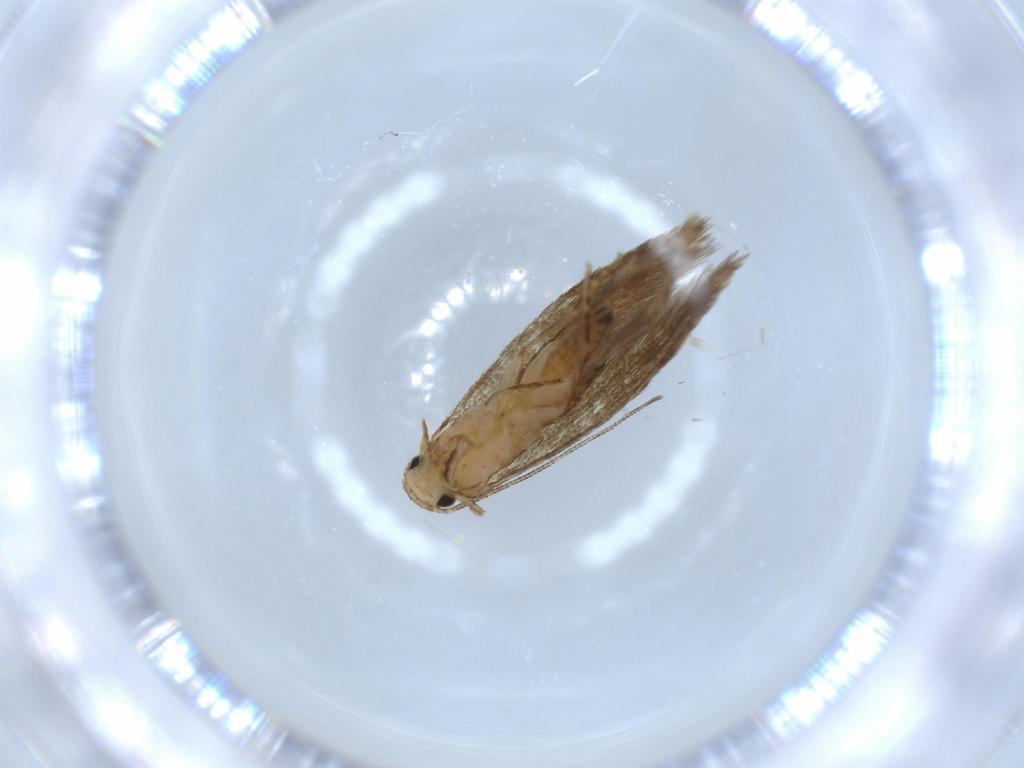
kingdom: Animalia
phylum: Arthropoda
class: Insecta
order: Lepidoptera
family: Tineidae
